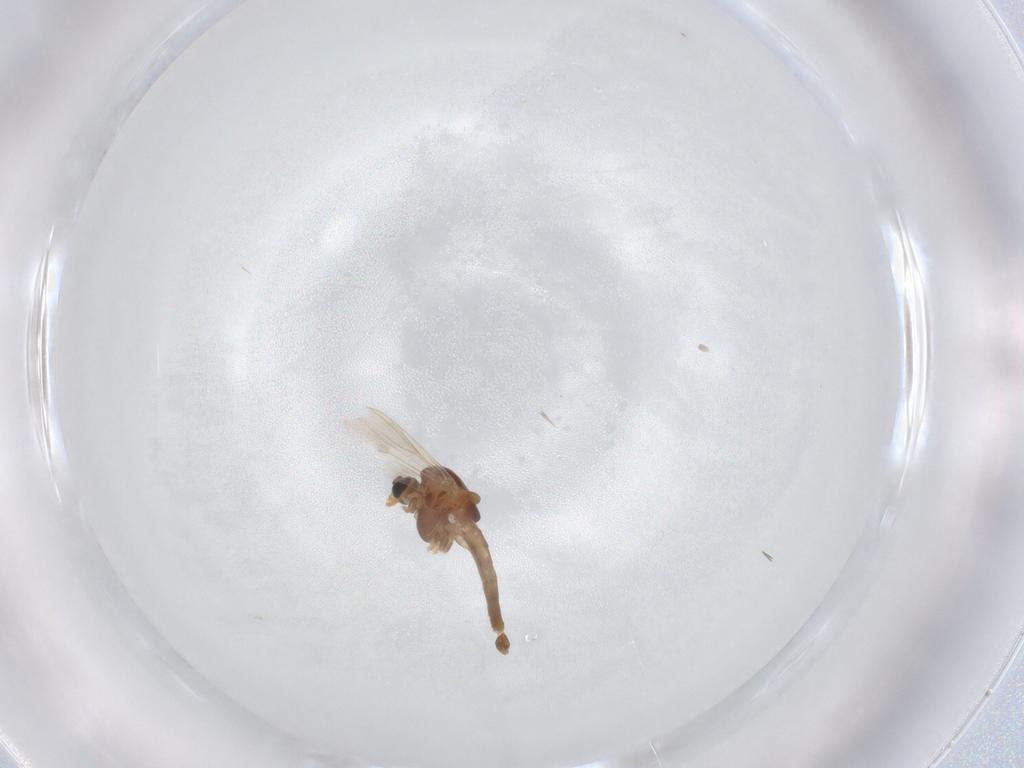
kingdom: Animalia
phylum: Arthropoda
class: Insecta
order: Diptera
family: Chironomidae
